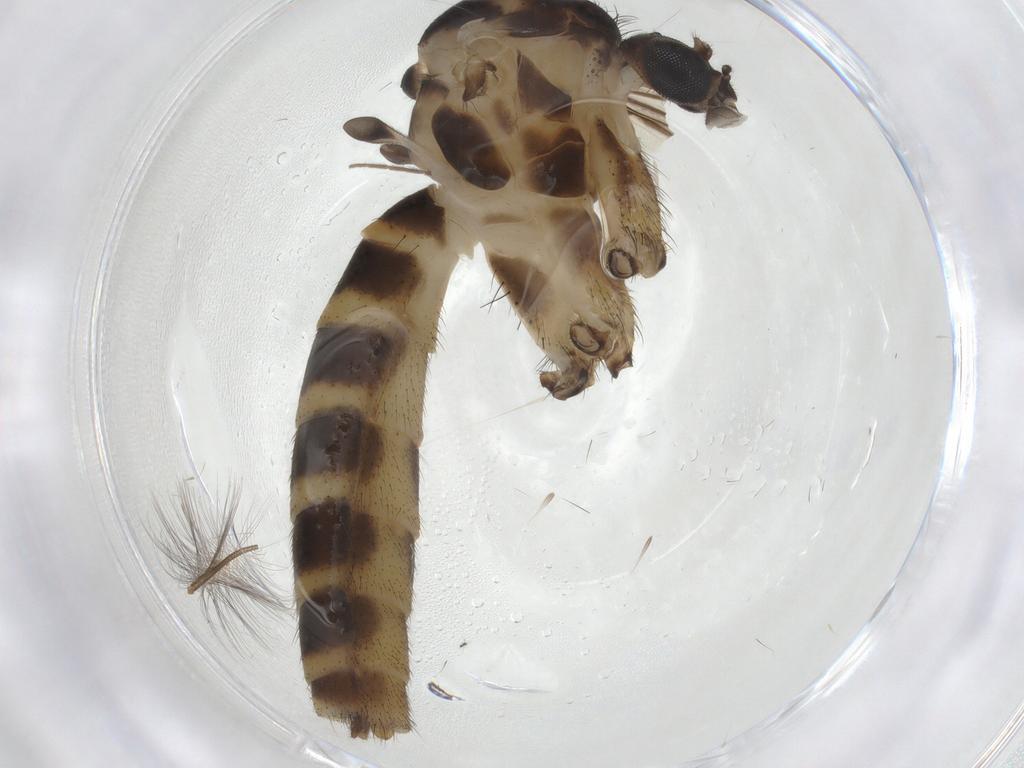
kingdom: Animalia
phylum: Arthropoda
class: Insecta
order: Diptera
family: Mycetophilidae
